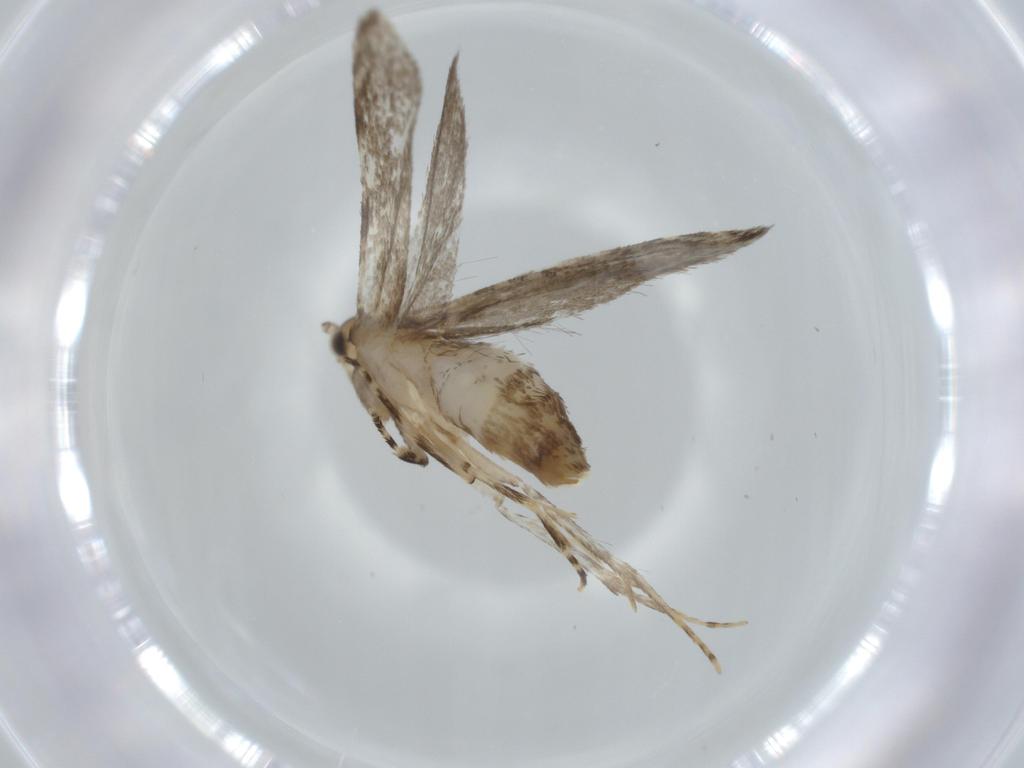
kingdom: Animalia
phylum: Arthropoda
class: Insecta
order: Lepidoptera
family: Tineidae
